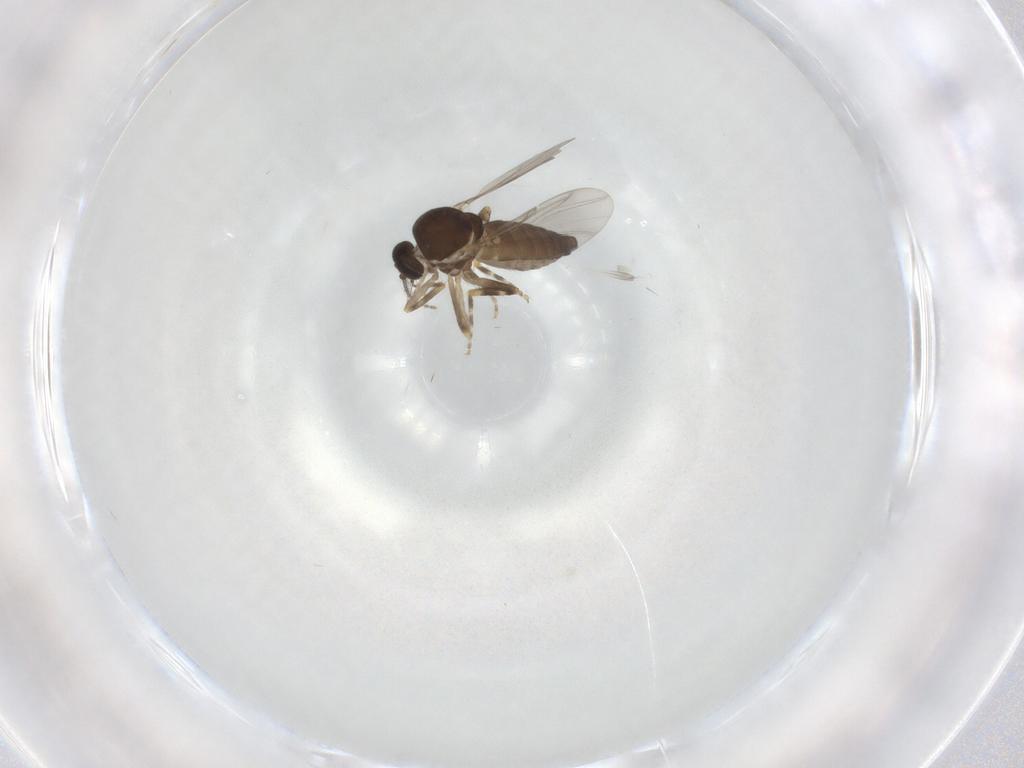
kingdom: Animalia
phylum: Arthropoda
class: Insecta
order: Diptera
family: Ceratopogonidae
